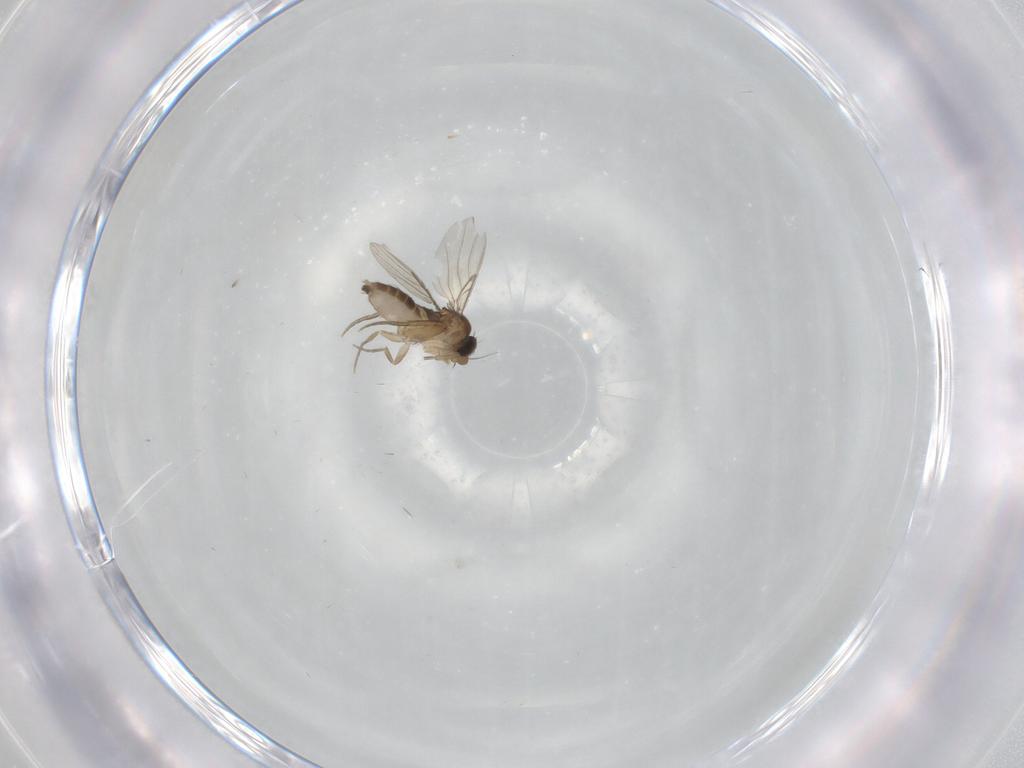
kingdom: Animalia
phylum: Arthropoda
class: Insecta
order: Diptera
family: Phoridae
